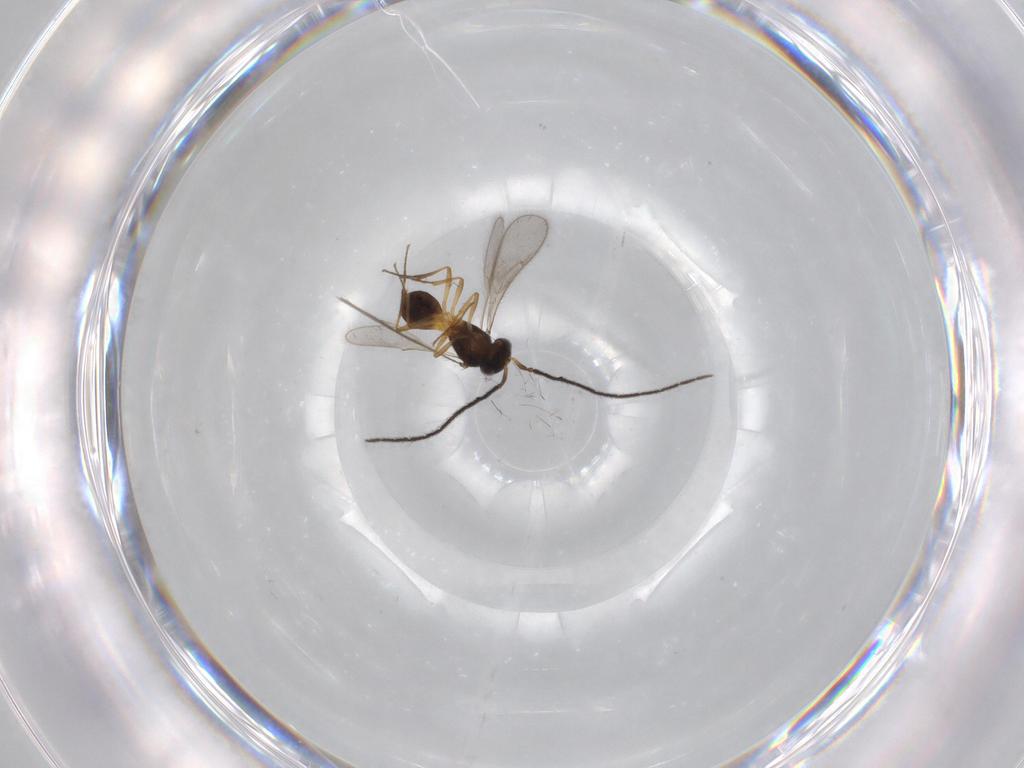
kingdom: Animalia
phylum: Arthropoda
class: Insecta
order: Hymenoptera
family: Scelionidae
